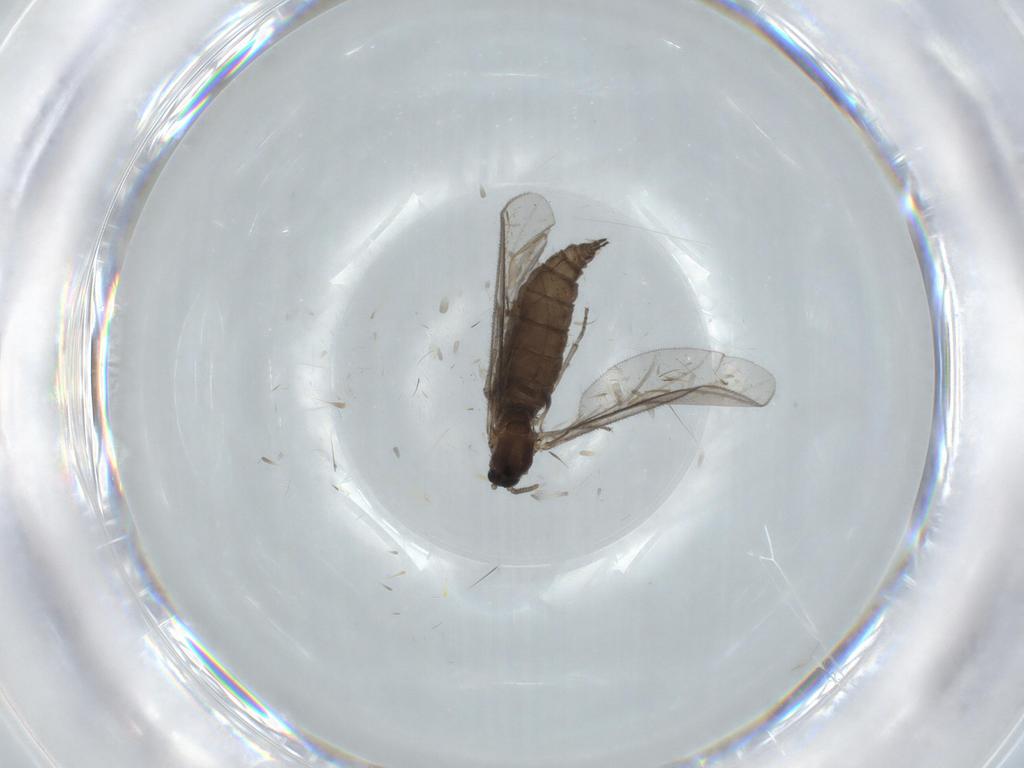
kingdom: Animalia
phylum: Arthropoda
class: Insecta
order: Diptera
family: Sciaridae
